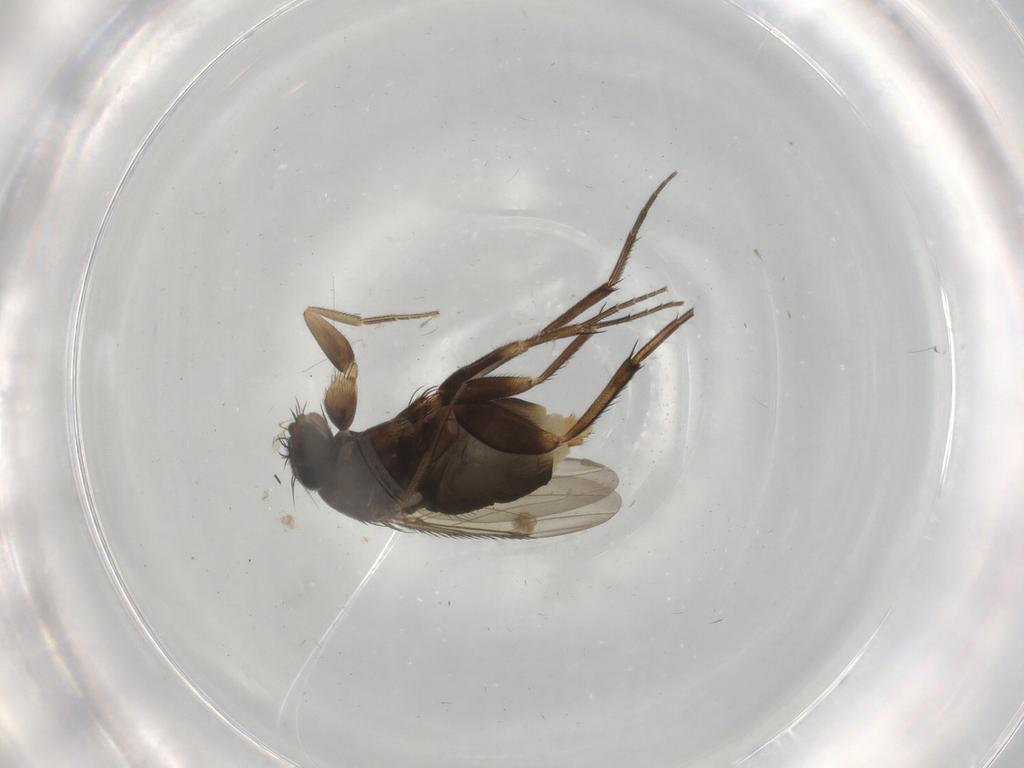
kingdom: Animalia
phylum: Arthropoda
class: Insecta
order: Diptera
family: Phoridae
